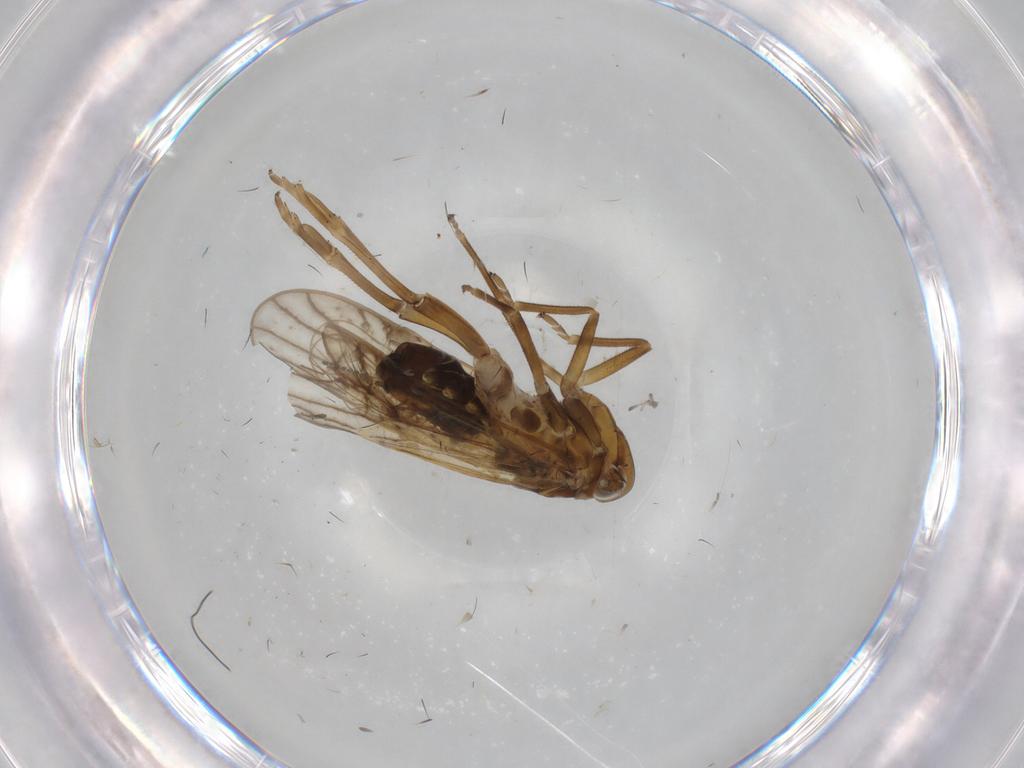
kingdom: Animalia
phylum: Arthropoda
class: Insecta
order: Hemiptera
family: Delphacidae
